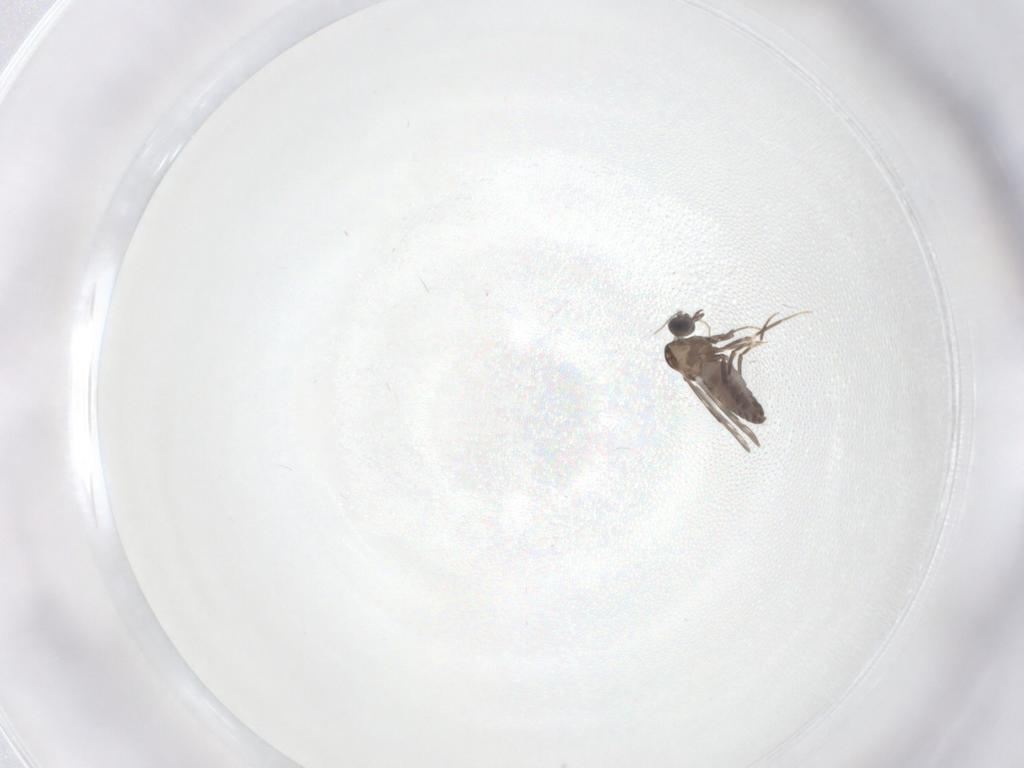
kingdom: Animalia
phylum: Arthropoda
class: Insecta
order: Diptera
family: Ceratopogonidae
